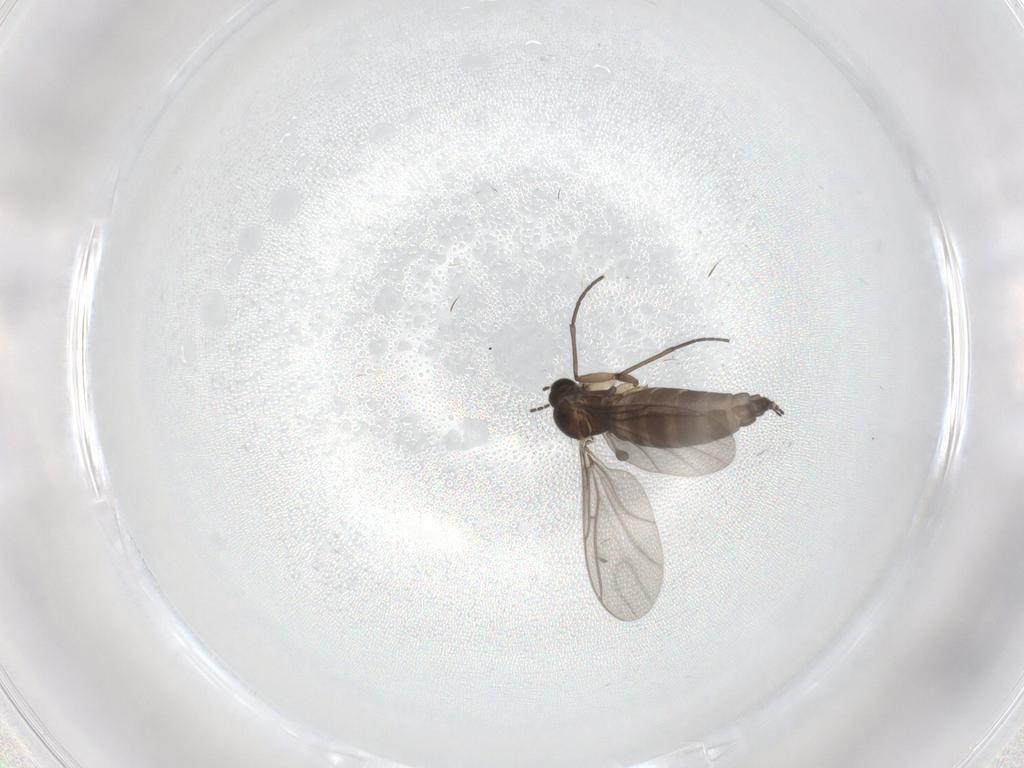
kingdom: Animalia
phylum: Arthropoda
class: Insecta
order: Diptera
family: Sciaridae
